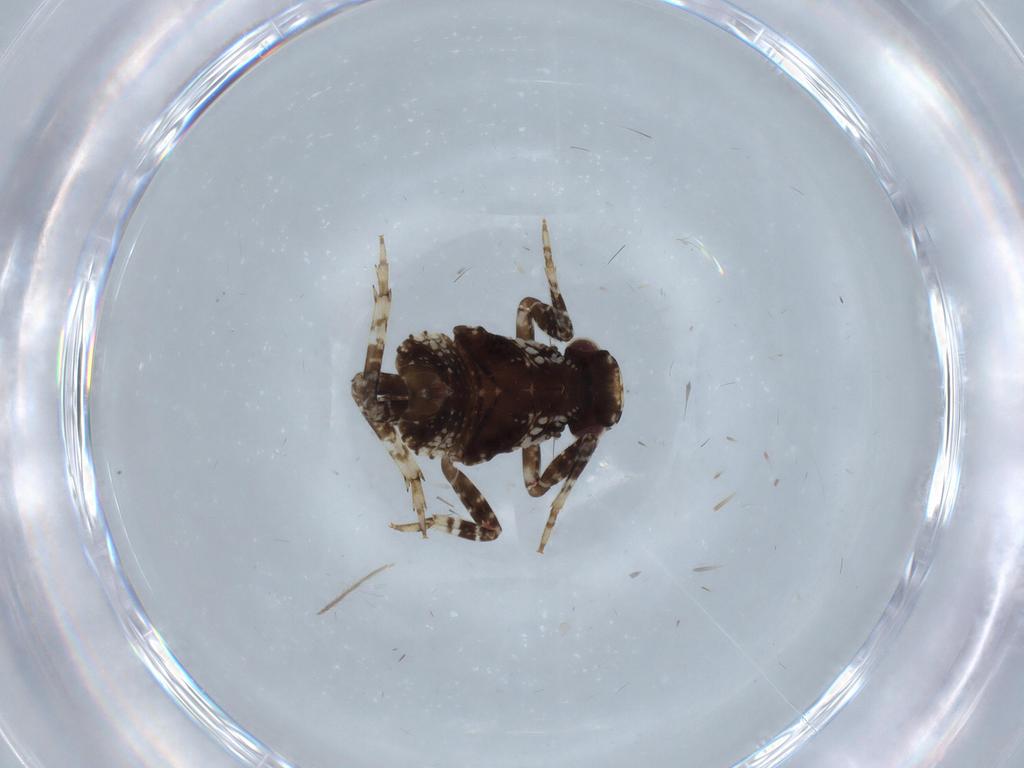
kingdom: Animalia
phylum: Arthropoda
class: Insecta
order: Hemiptera
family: Fulgoridae
